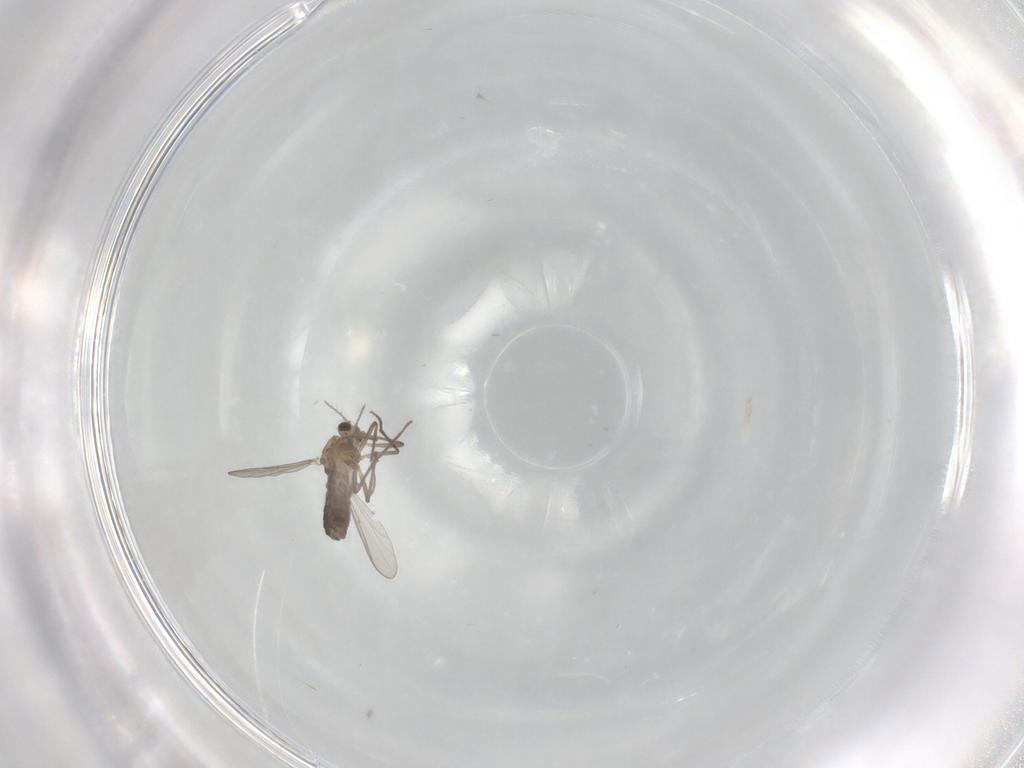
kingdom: Animalia
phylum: Arthropoda
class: Insecta
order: Diptera
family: Chironomidae
